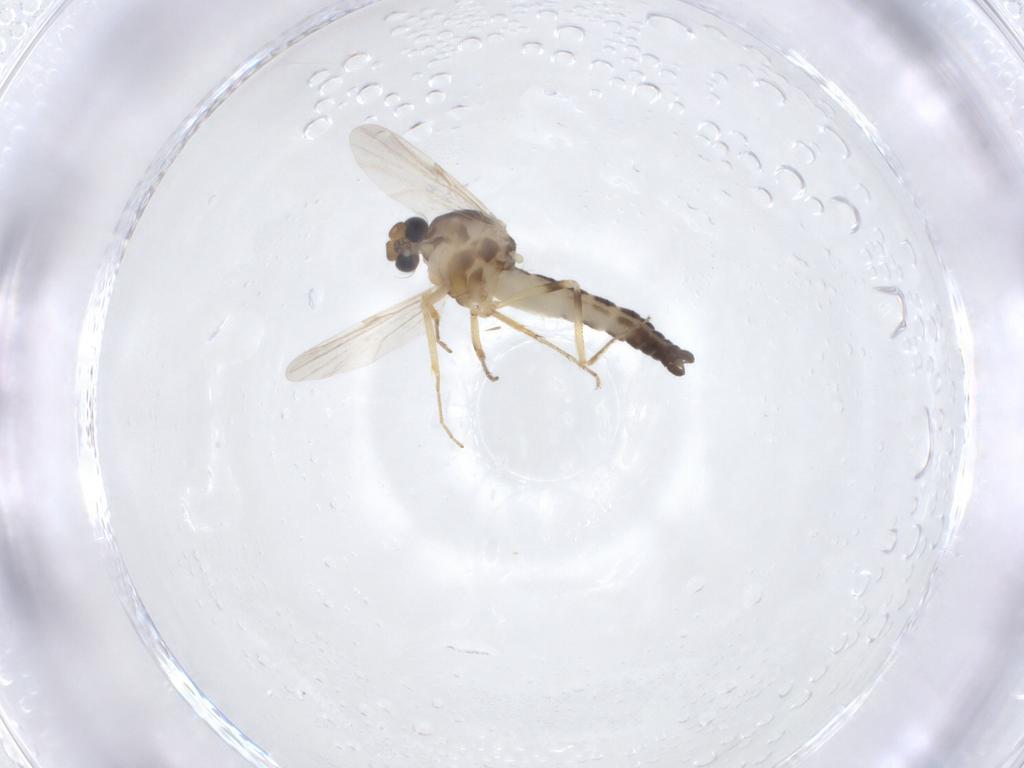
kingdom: Animalia
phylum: Arthropoda
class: Insecta
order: Diptera
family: Ceratopogonidae
